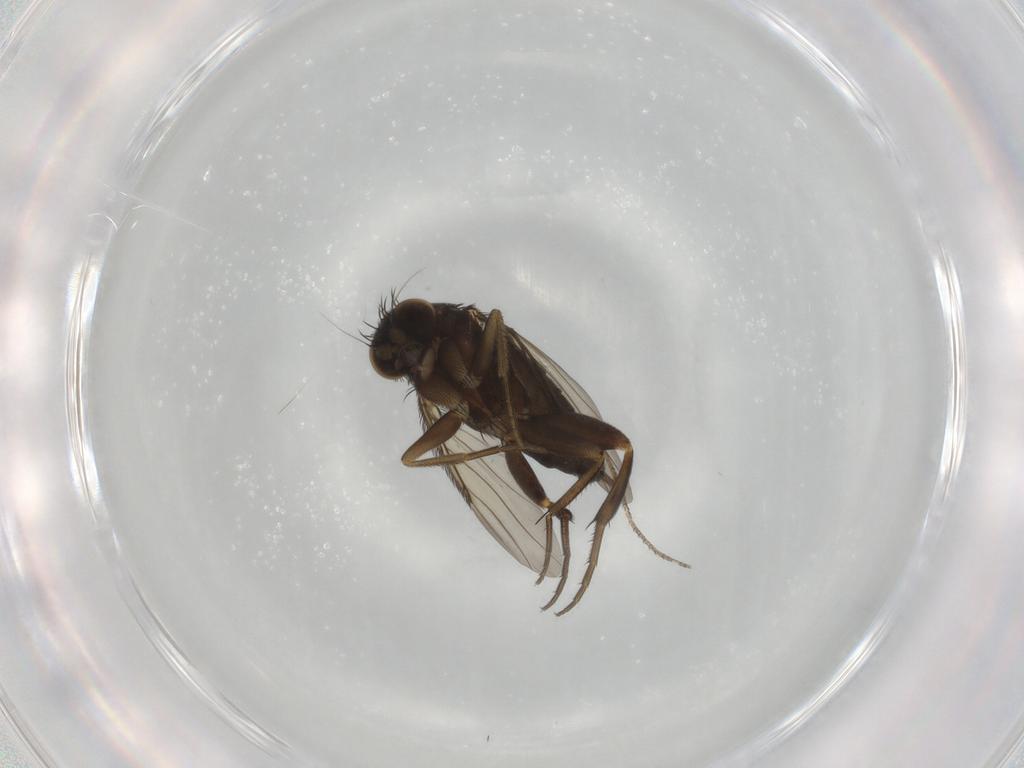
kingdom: Animalia
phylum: Arthropoda
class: Insecta
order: Diptera
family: Phoridae
